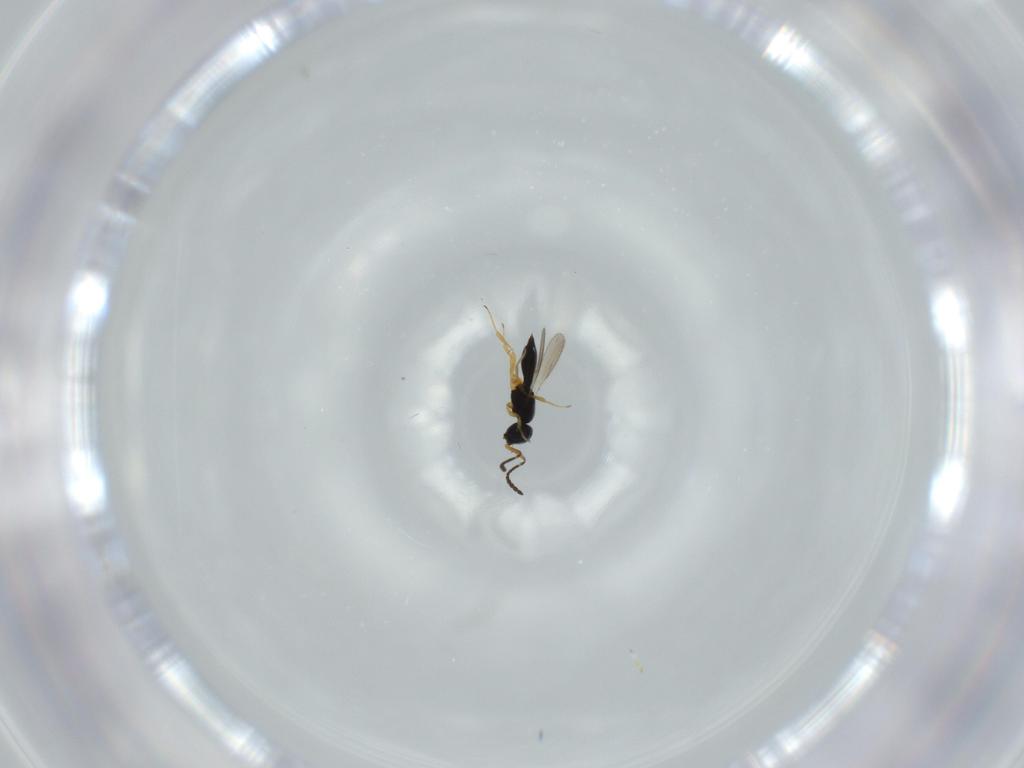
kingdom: Animalia
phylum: Arthropoda
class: Insecta
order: Hymenoptera
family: Scelionidae
